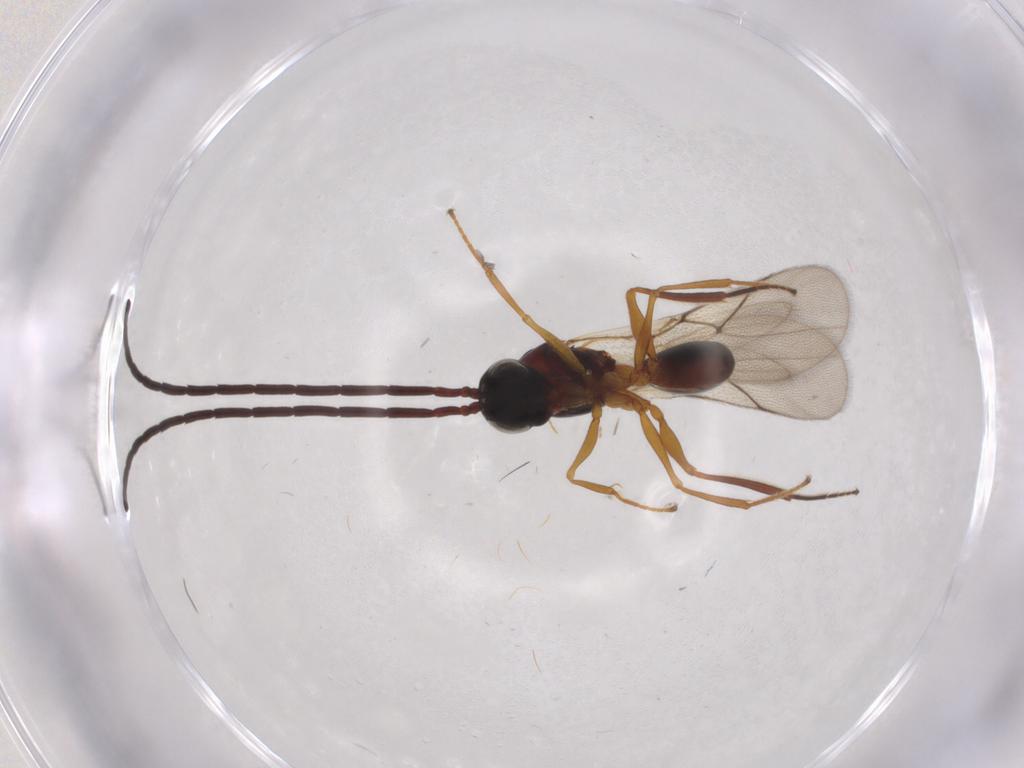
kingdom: Animalia
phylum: Arthropoda
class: Insecta
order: Hymenoptera
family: Figitidae
